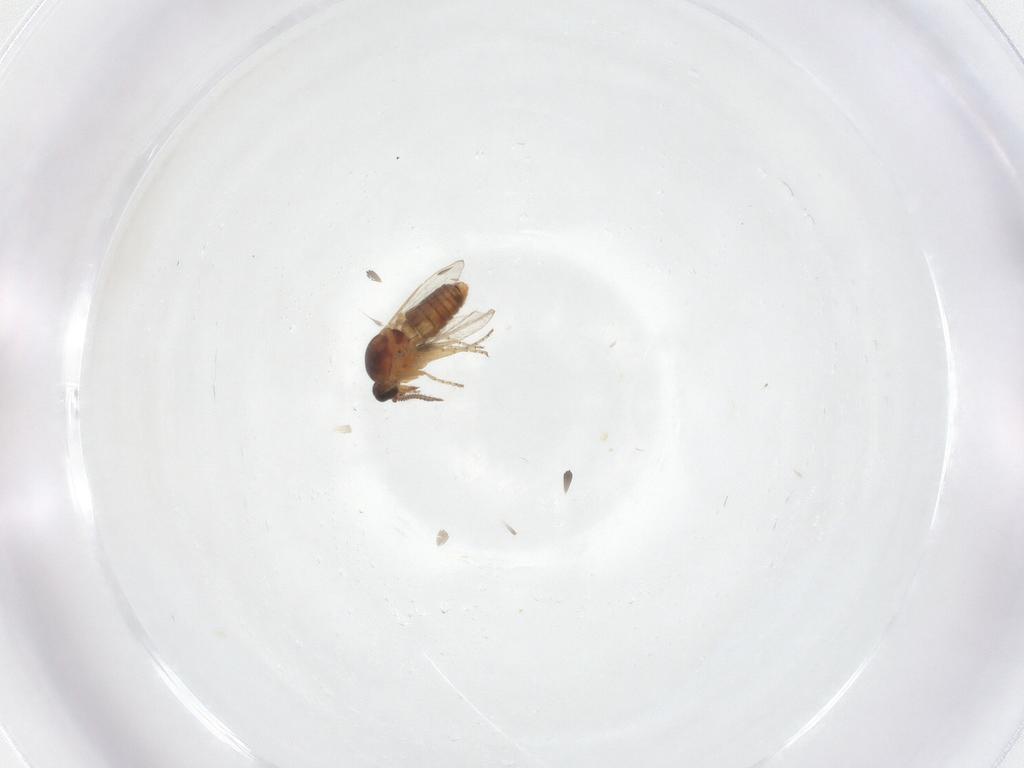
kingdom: Animalia
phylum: Arthropoda
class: Insecta
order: Diptera
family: Ceratopogonidae
